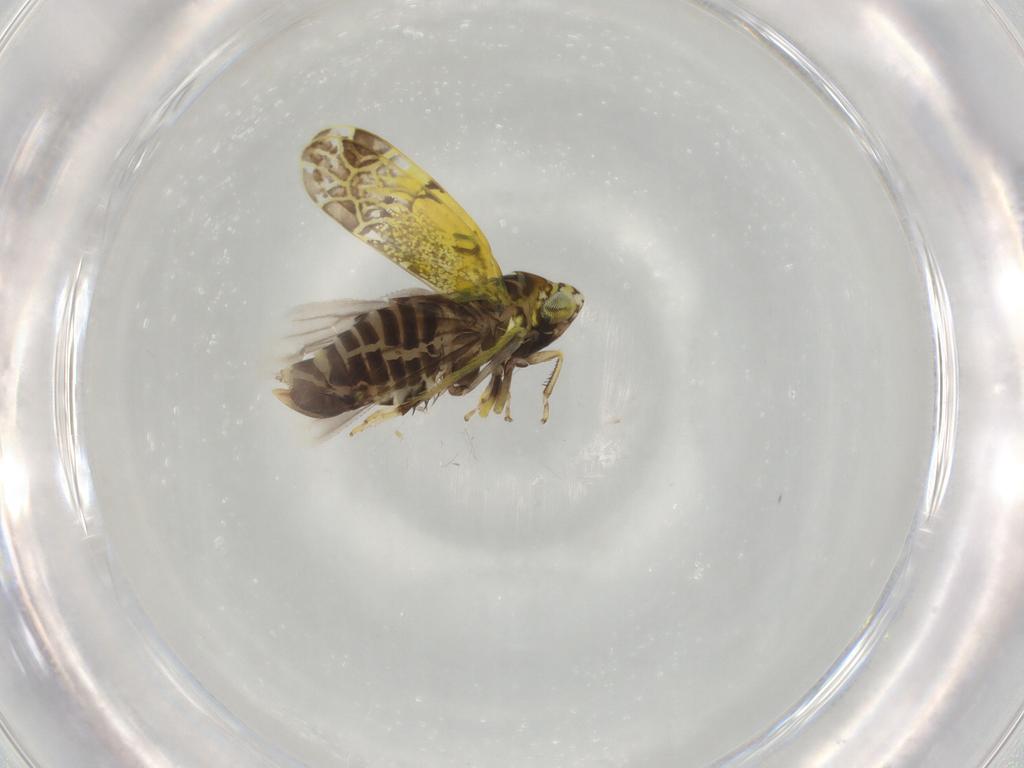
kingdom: Animalia
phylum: Arthropoda
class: Insecta
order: Hemiptera
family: Cicadellidae
